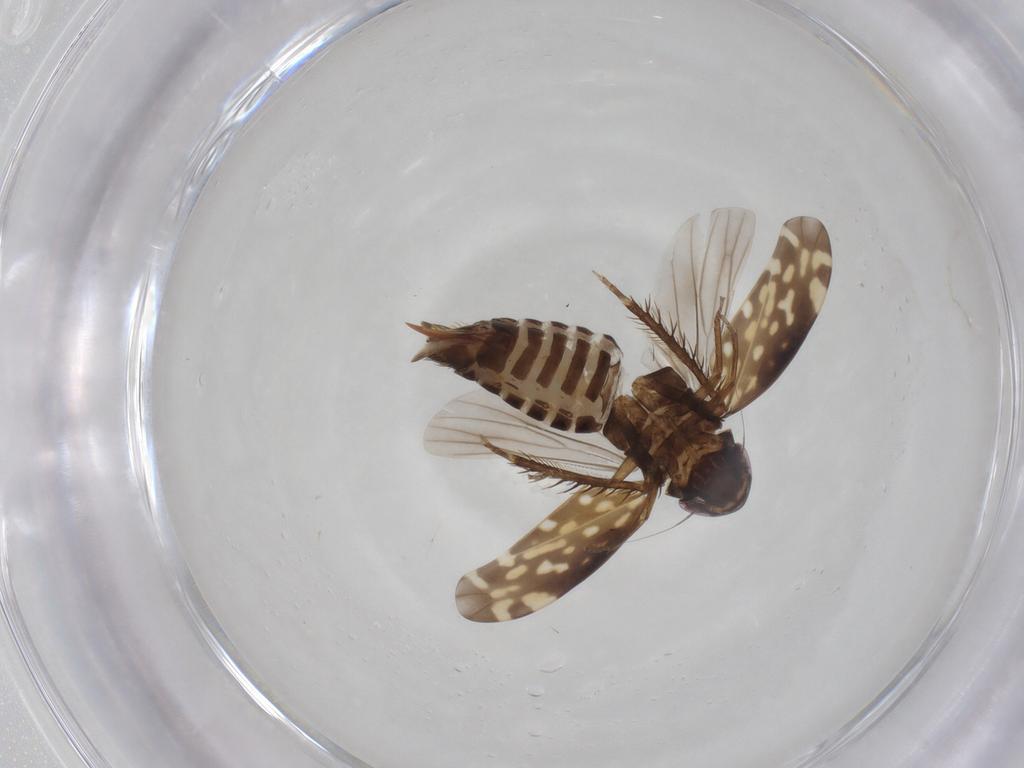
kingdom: Animalia
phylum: Arthropoda
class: Insecta
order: Hemiptera
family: Cicadellidae
